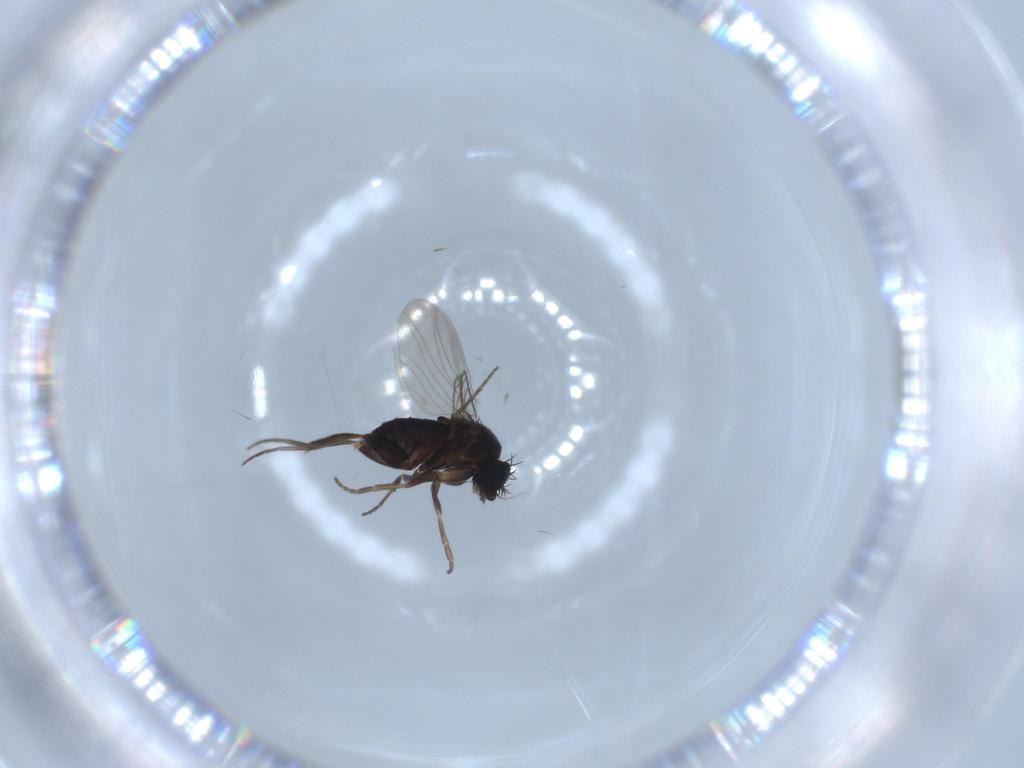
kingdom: Animalia
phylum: Arthropoda
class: Insecta
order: Diptera
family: Phoridae
